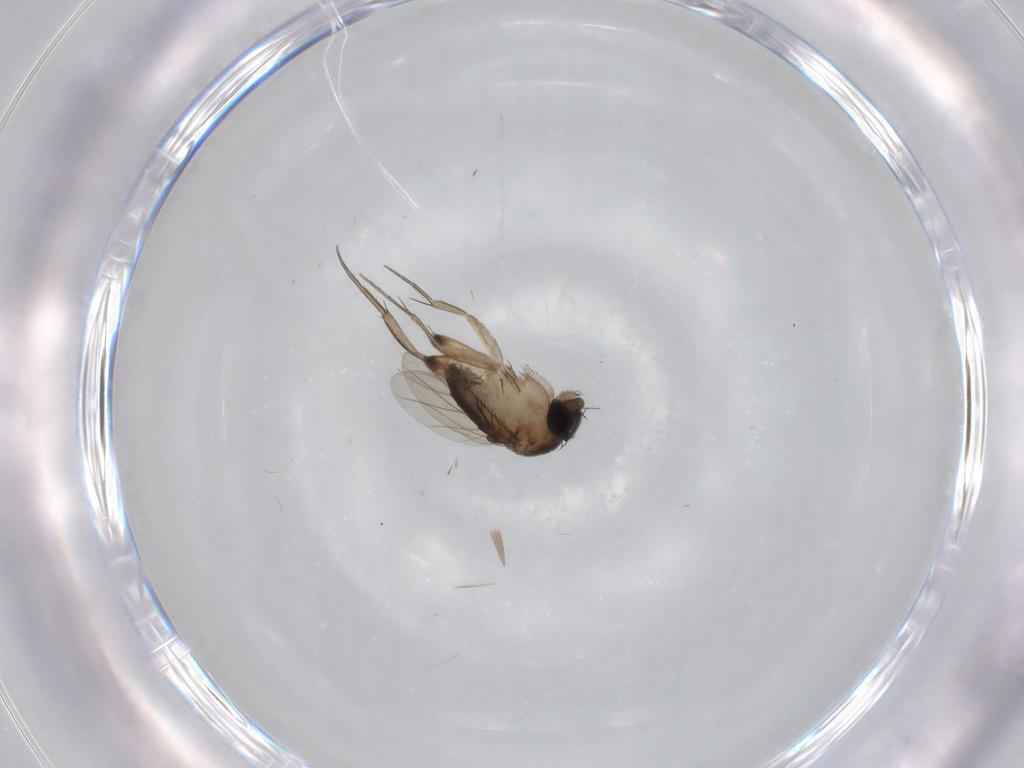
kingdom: Animalia
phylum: Arthropoda
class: Insecta
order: Diptera
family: Phoridae
